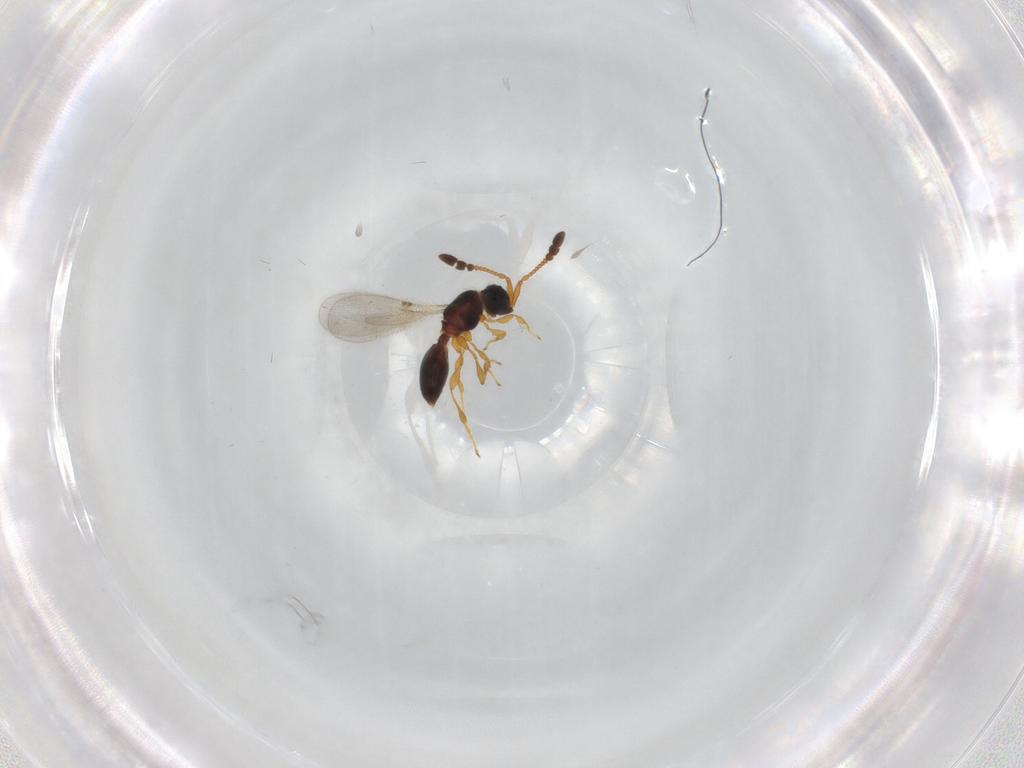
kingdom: Animalia
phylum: Arthropoda
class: Insecta
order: Hymenoptera
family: Diapriidae
